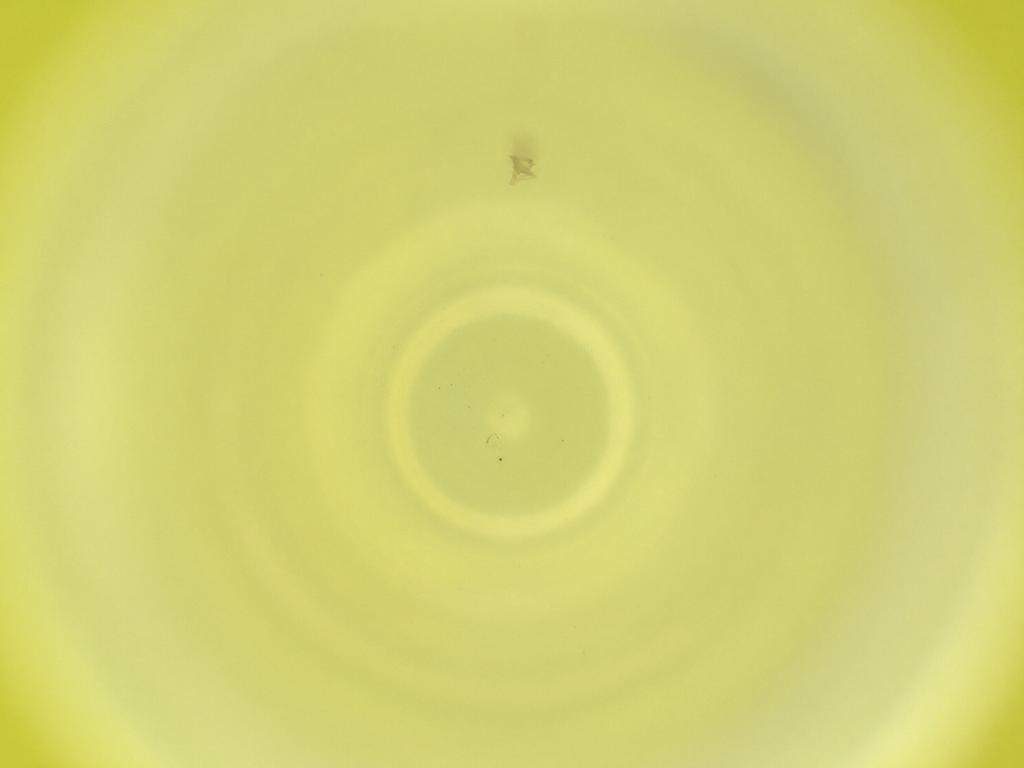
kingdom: Animalia
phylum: Arthropoda
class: Insecta
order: Diptera
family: Cecidomyiidae
